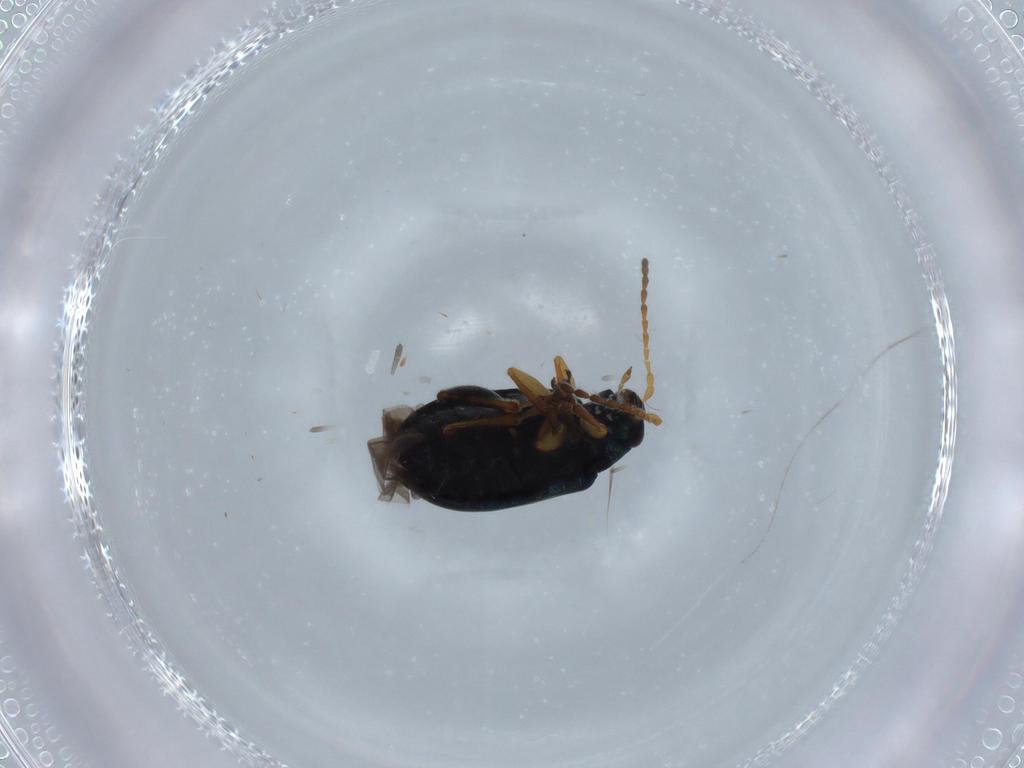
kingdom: Animalia
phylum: Arthropoda
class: Insecta
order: Coleoptera
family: Chrysomelidae
